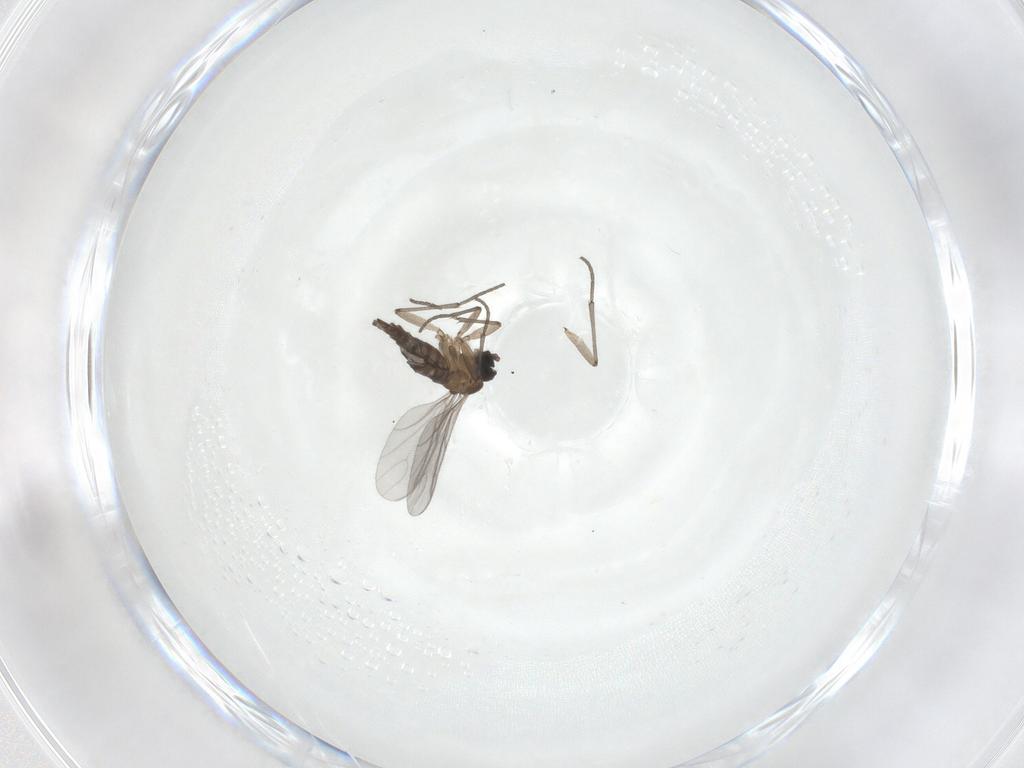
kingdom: Animalia
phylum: Arthropoda
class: Insecta
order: Diptera
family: Sciaridae
